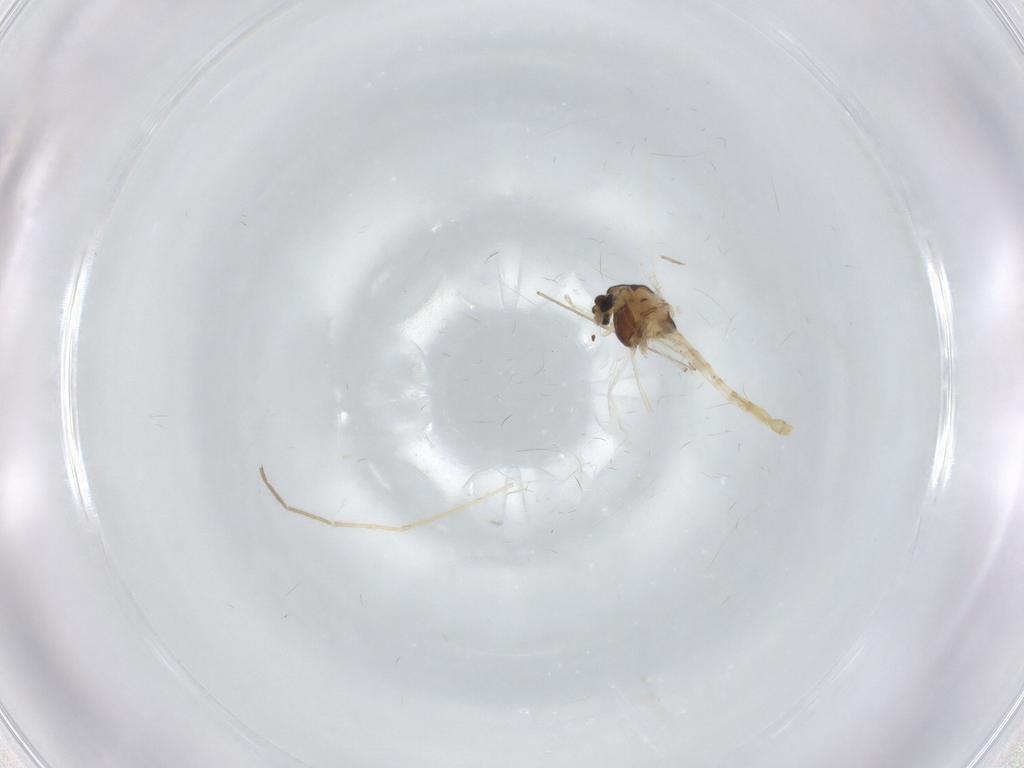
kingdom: Animalia
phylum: Arthropoda
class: Insecta
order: Diptera
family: Chironomidae
